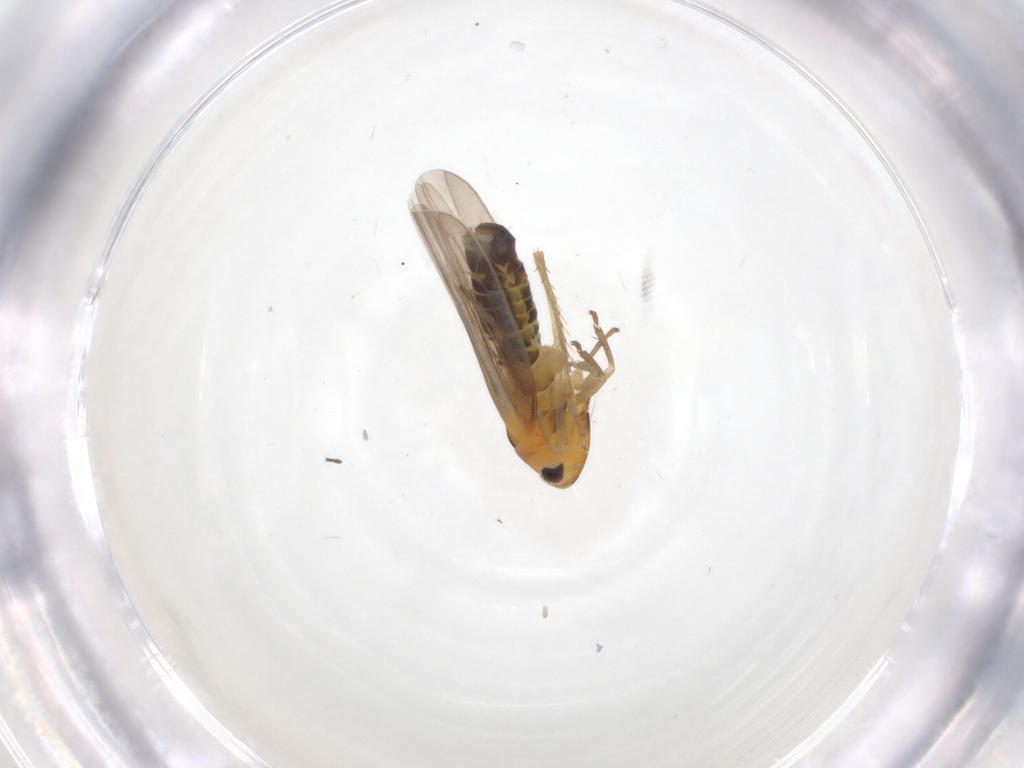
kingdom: Animalia
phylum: Arthropoda
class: Insecta
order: Hemiptera
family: Cicadellidae
